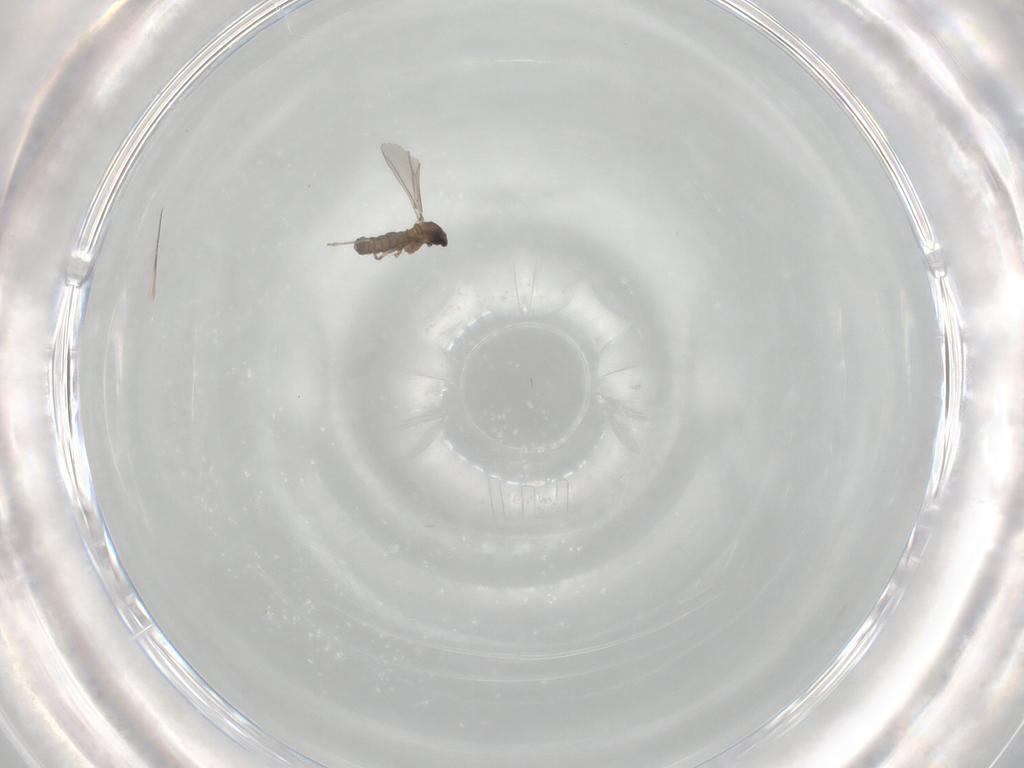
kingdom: Animalia
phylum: Arthropoda
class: Insecta
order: Diptera
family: Cecidomyiidae
